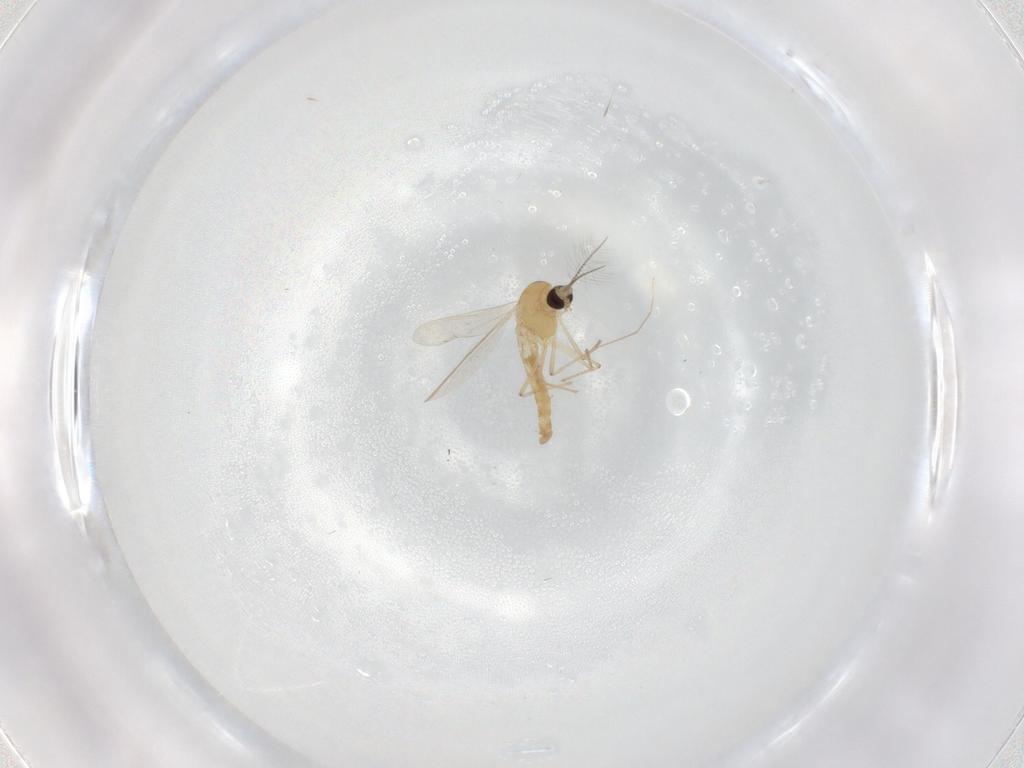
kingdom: Animalia
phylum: Arthropoda
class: Insecta
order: Diptera
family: Chironomidae
